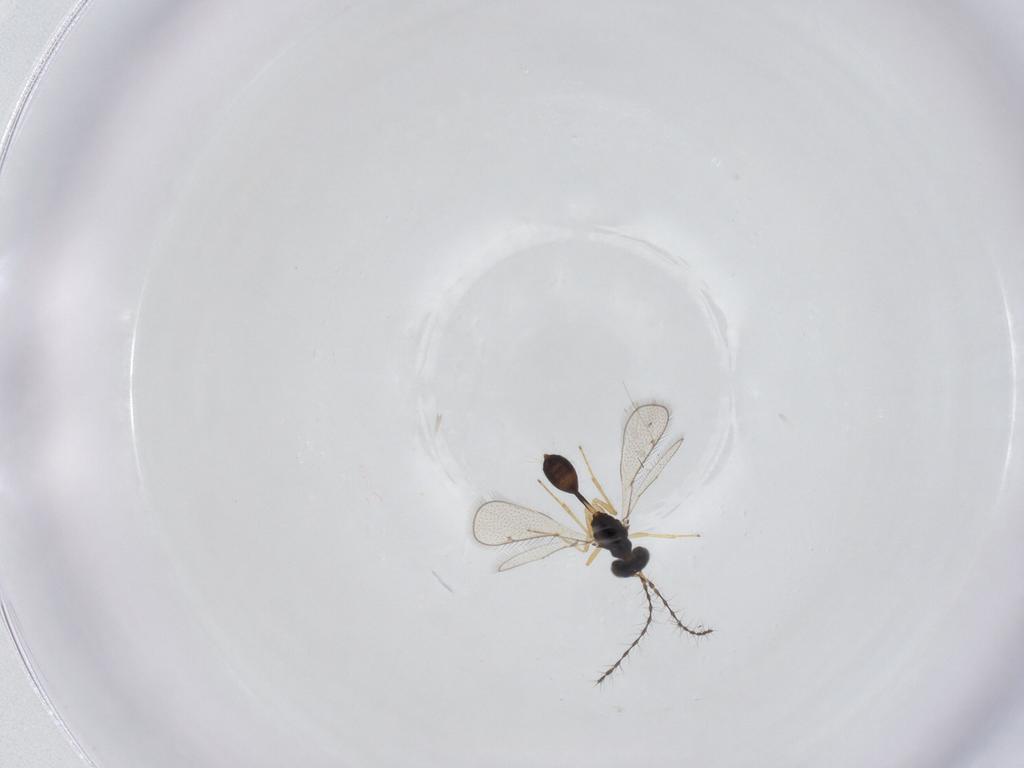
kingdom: Animalia
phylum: Arthropoda
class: Insecta
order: Hymenoptera
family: Diparidae
